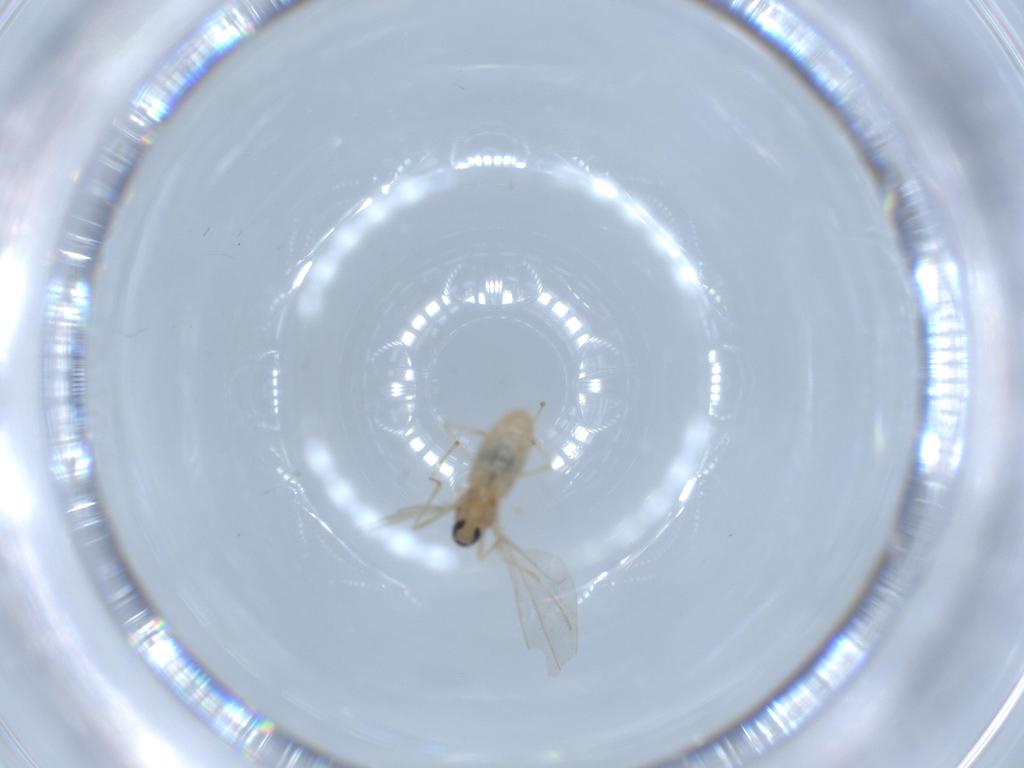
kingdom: Animalia
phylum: Arthropoda
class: Insecta
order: Diptera
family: Cecidomyiidae
